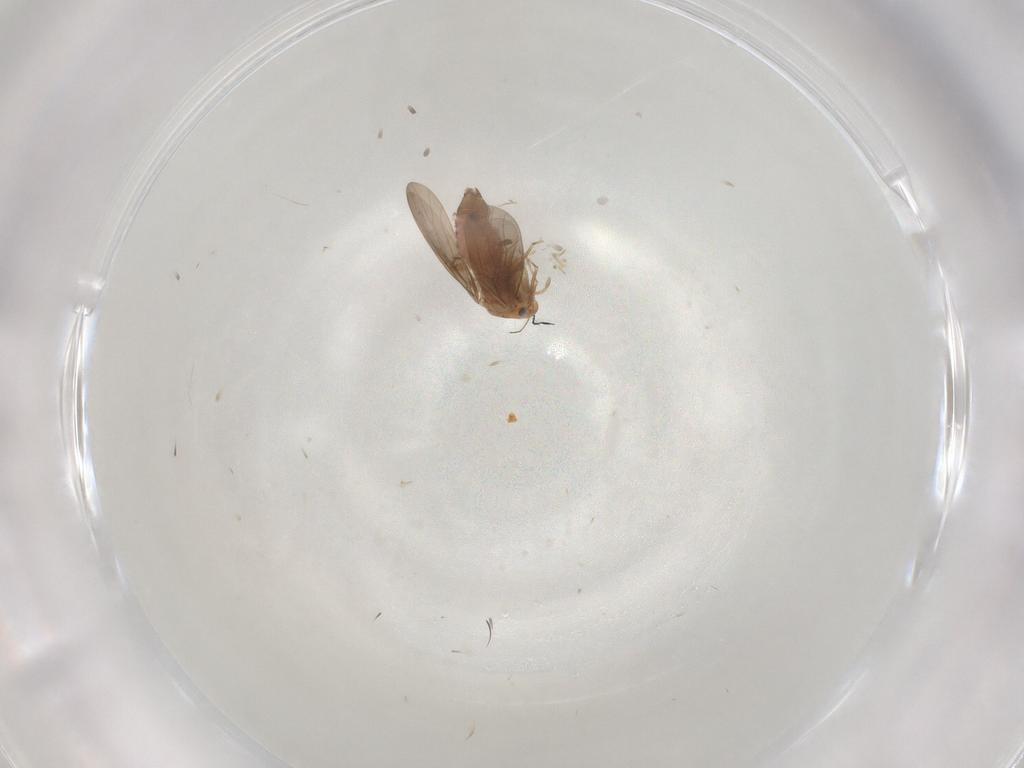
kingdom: Animalia
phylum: Arthropoda
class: Insecta
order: Psocodea
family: Lepidopsocidae
